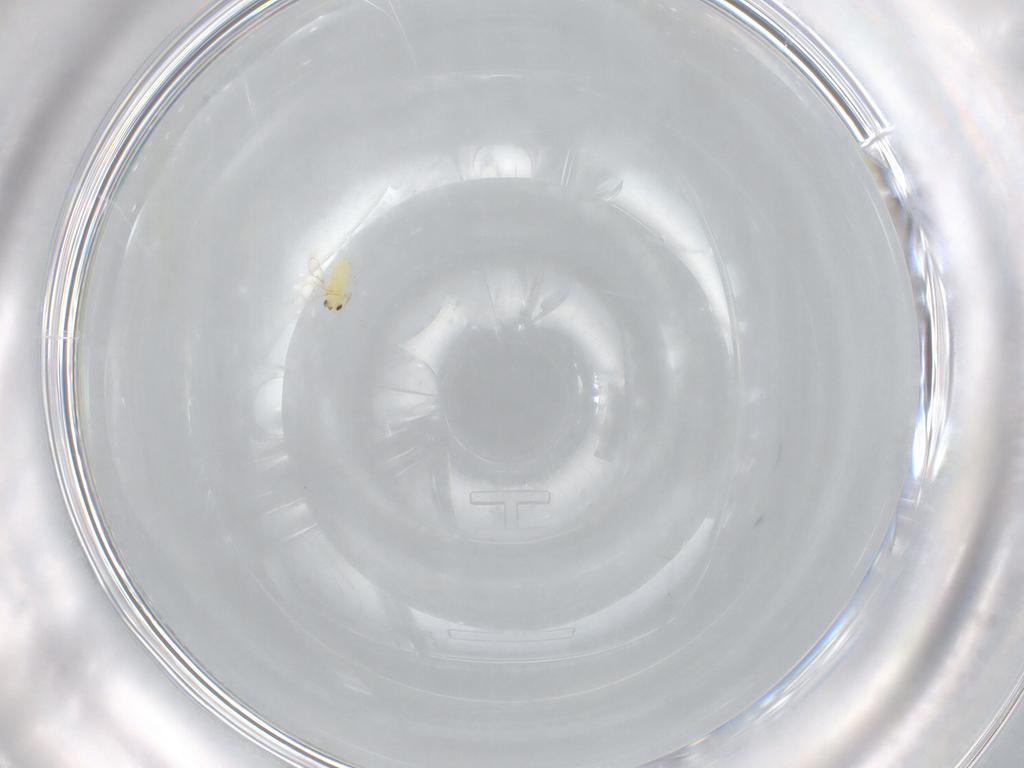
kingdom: Animalia
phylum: Arthropoda
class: Insecta
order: Hymenoptera
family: Aphelinidae
